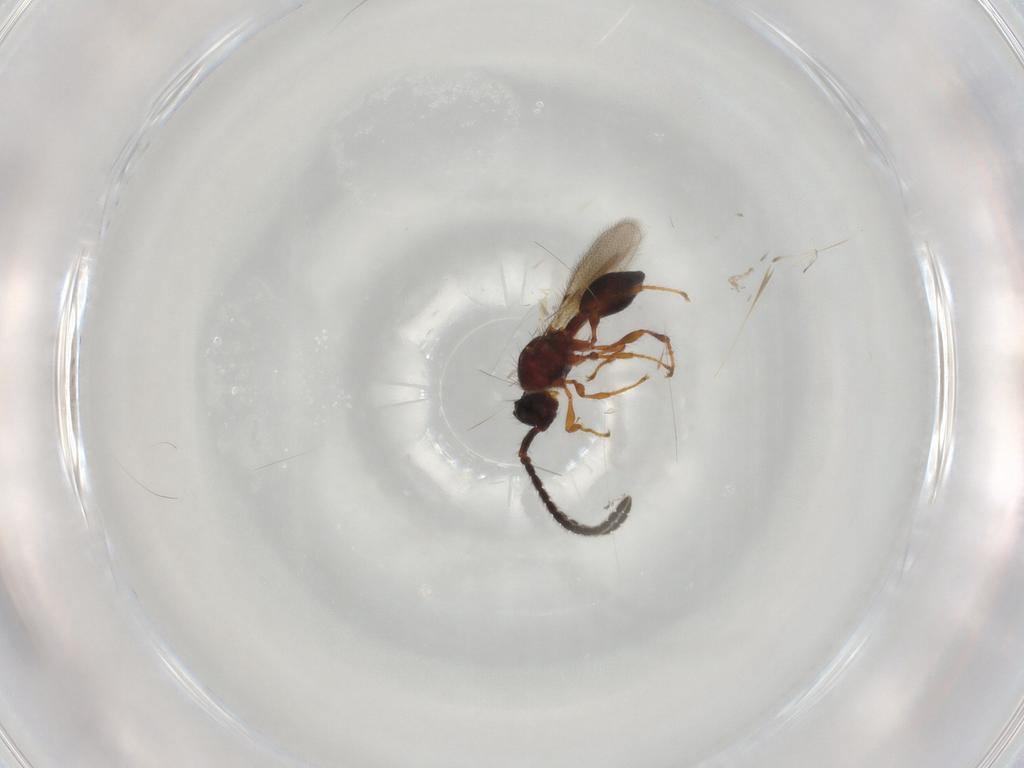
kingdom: Animalia
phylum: Arthropoda
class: Insecta
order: Hymenoptera
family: Diapriidae
